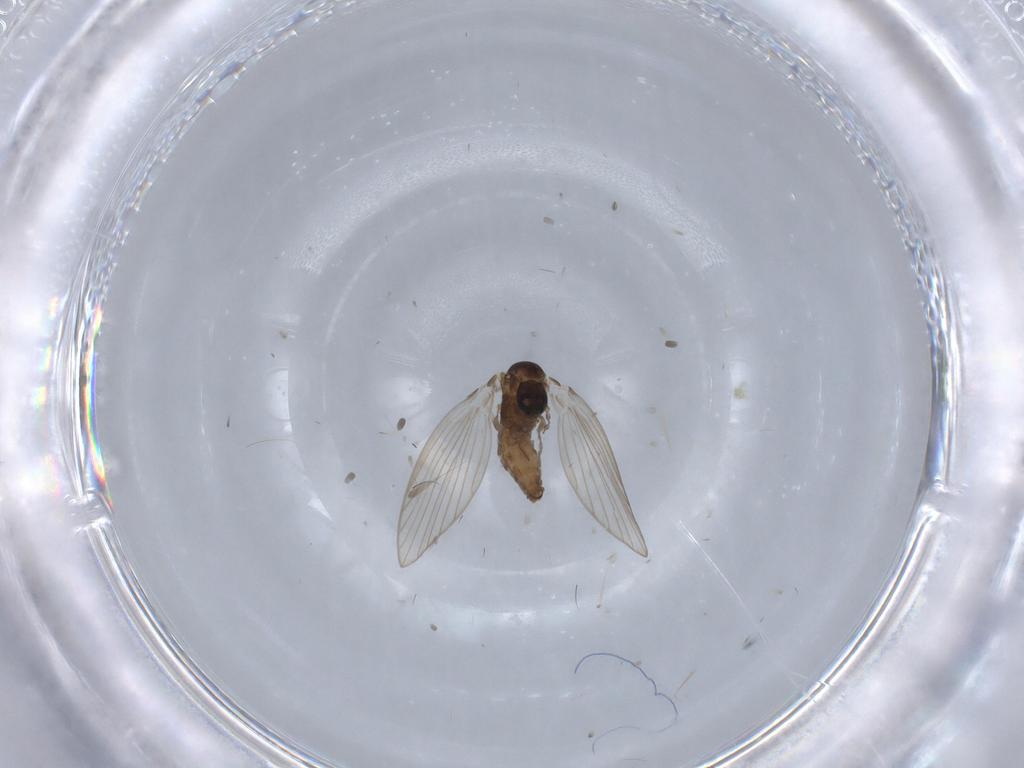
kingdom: Animalia
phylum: Arthropoda
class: Insecta
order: Diptera
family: Psychodidae
